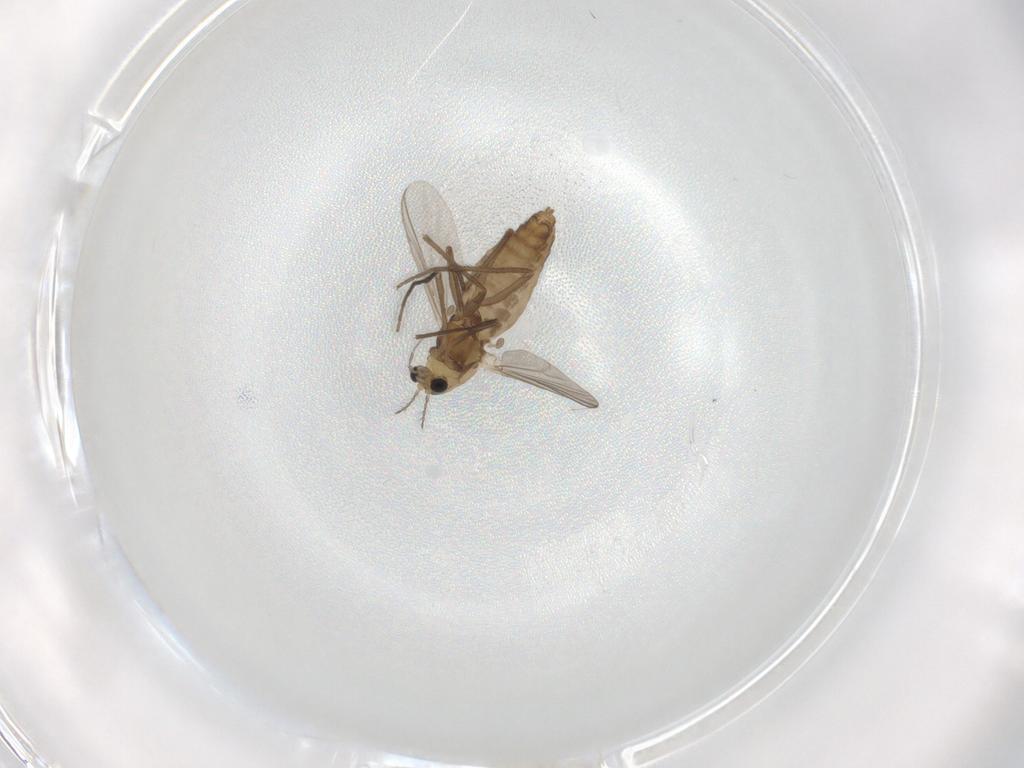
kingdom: Animalia
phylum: Arthropoda
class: Insecta
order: Diptera
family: Chironomidae
